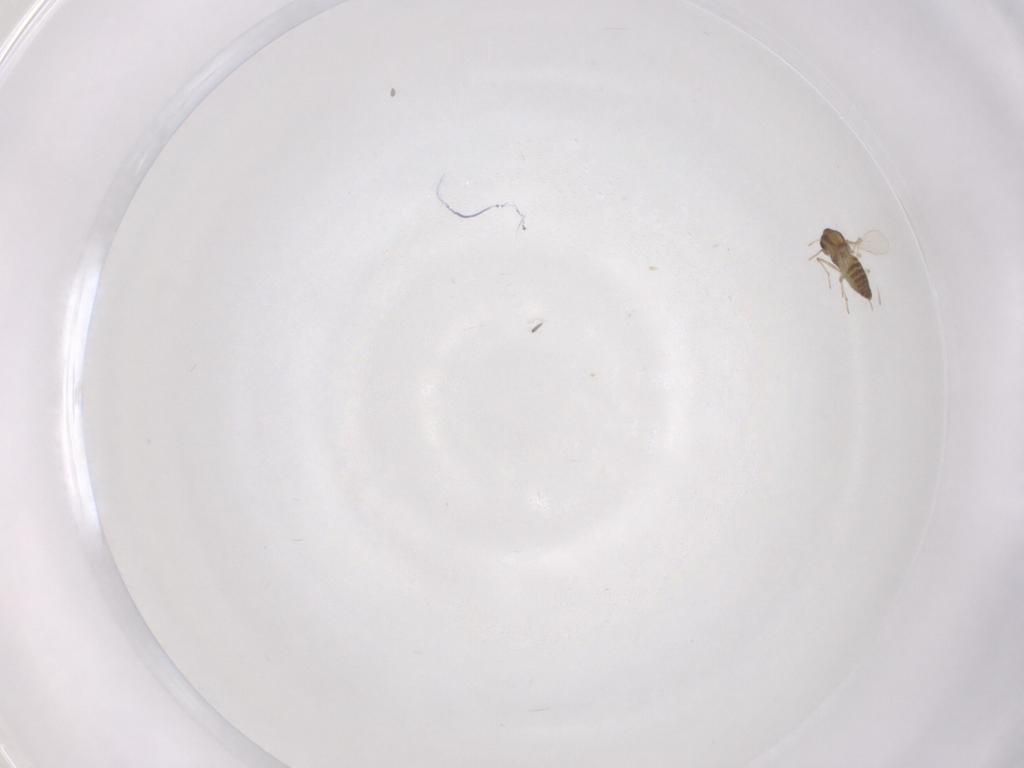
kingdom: Animalia
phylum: Arthropoda
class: Insecta
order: Diptera
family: Chironomidae
